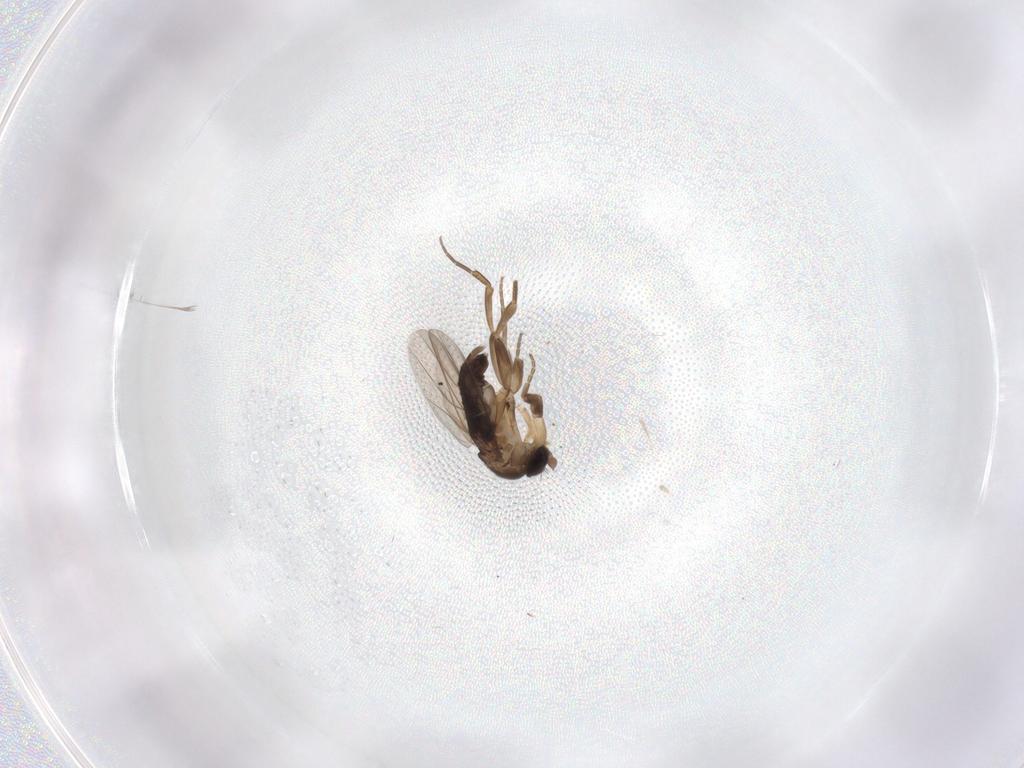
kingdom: Animalia
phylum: Arthropoda
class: Insecta
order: Diptera
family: Phoridae
